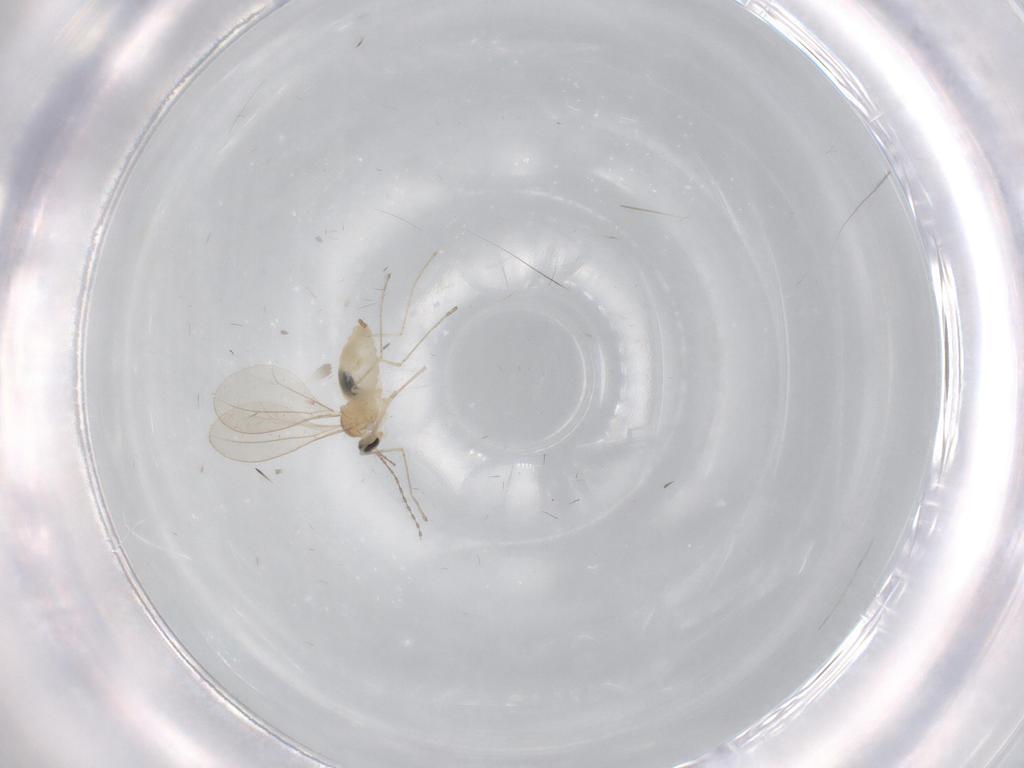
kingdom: Animalia
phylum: Arthropoda
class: Insecta
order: Diptera
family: Cecidomyiidae
